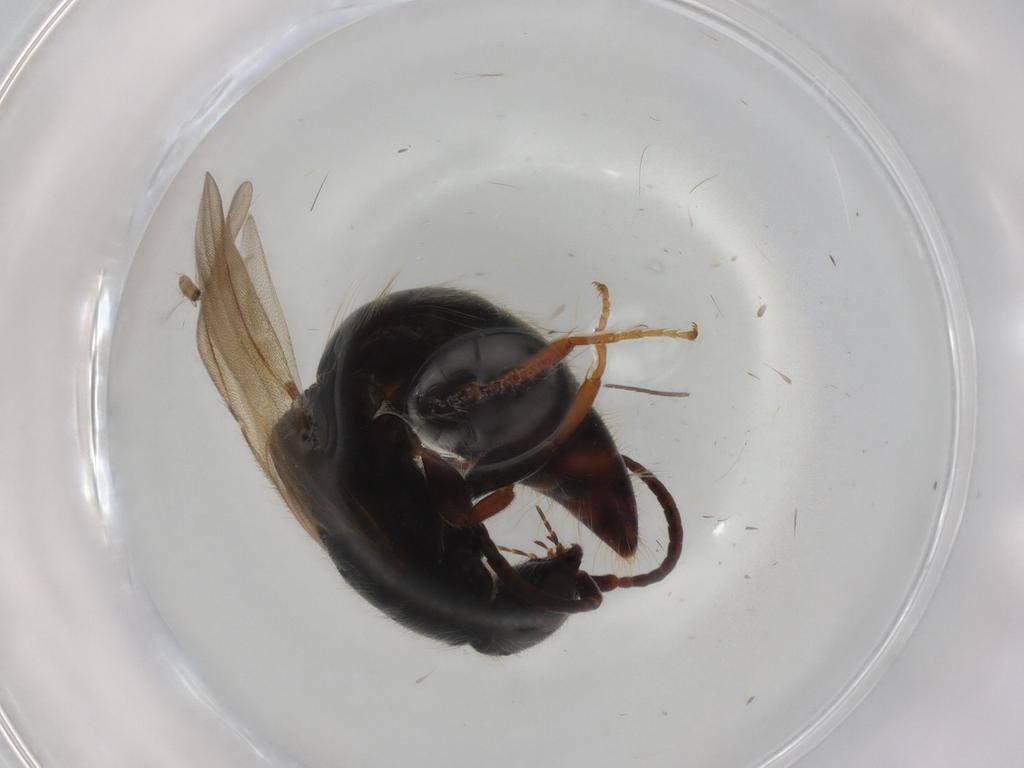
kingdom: Animalia
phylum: Arthropoda
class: Insecta
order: Hymenoptera
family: Bethylidae
